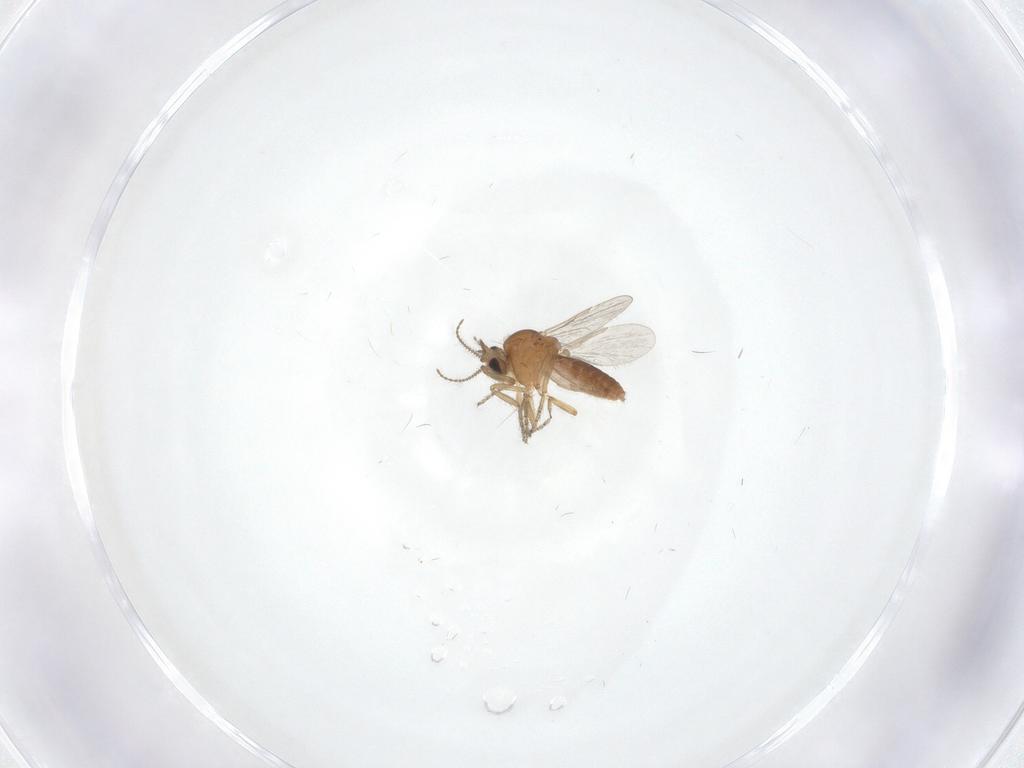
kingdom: Animalia
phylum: Arthropoda
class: Insecta
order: Diptera
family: Ceratopogonidae
